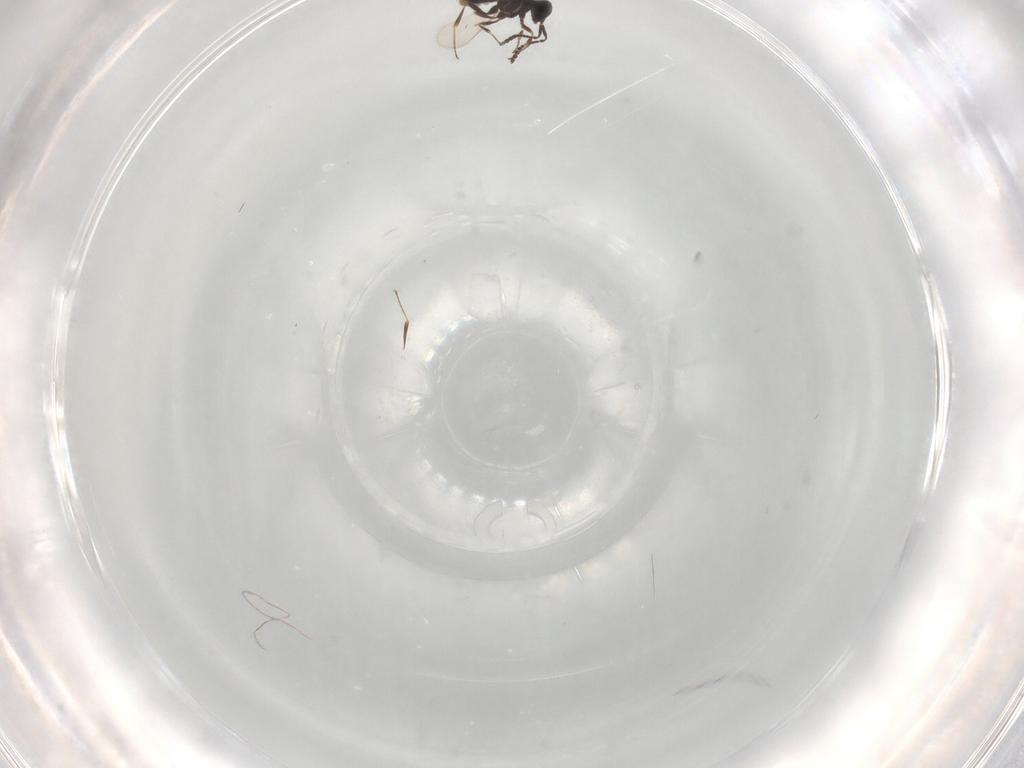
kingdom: Animalia
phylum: Arthropoda
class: Insecta
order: Hymenoptera
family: Scelionidae
